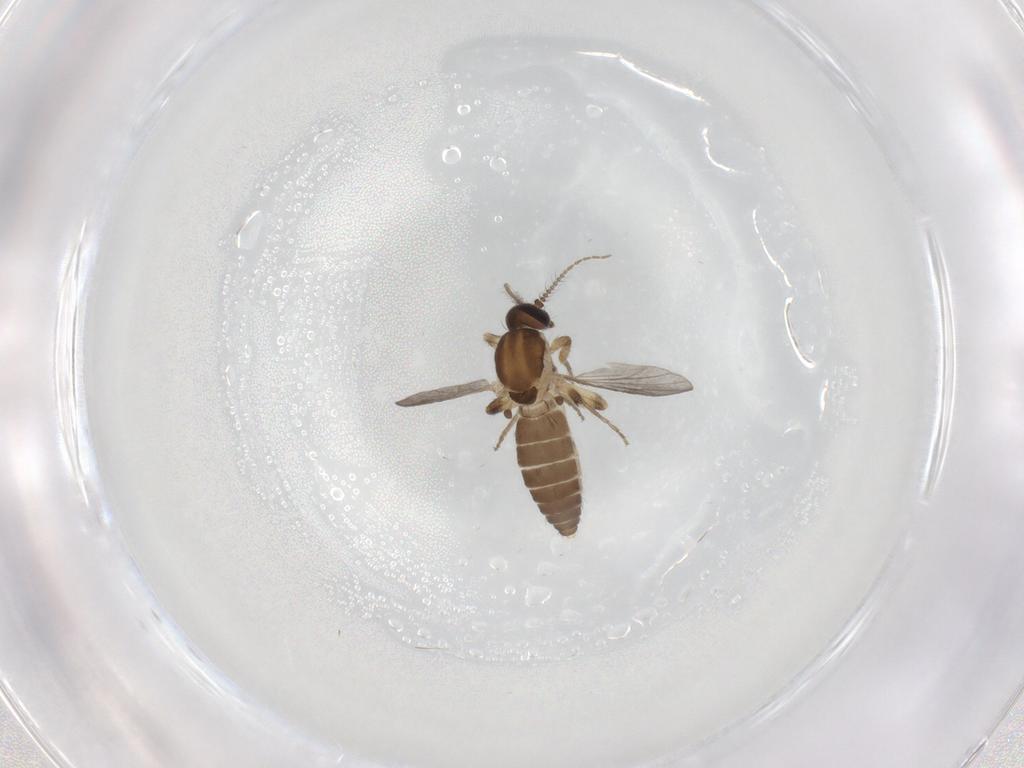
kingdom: Animalia
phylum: Arthropoda
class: Insecta
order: Diptera
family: Ceratopogonidae
